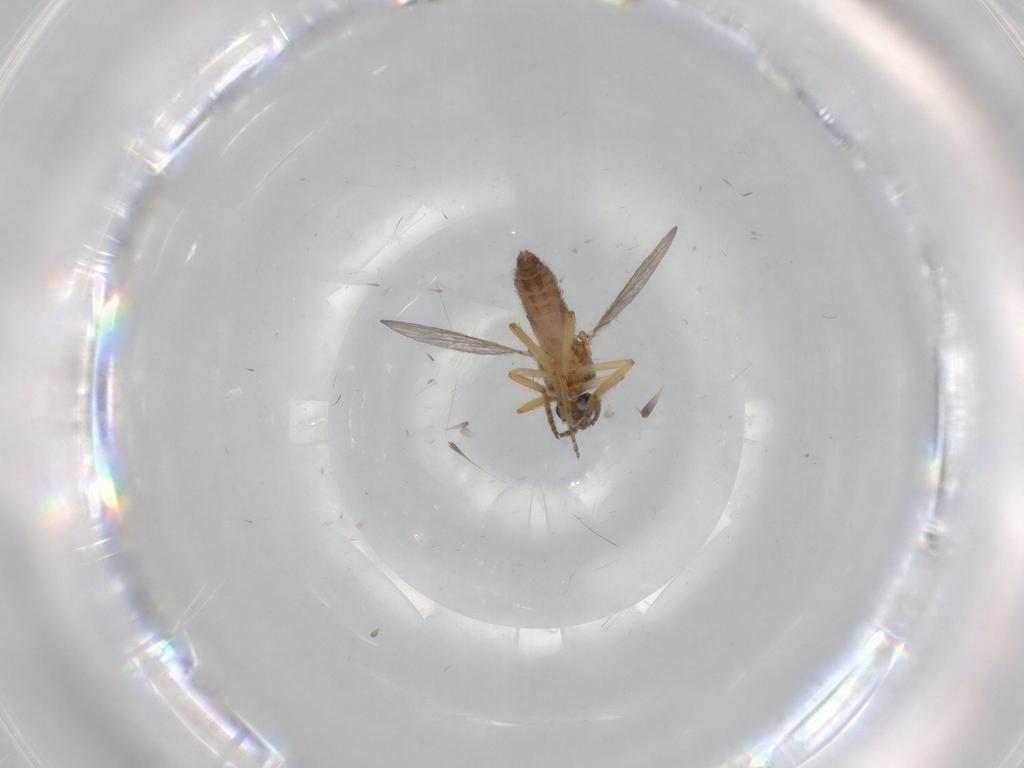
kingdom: Animalia
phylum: Arthropoda
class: Insecta
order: Diptera
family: Ceratopogonidae
